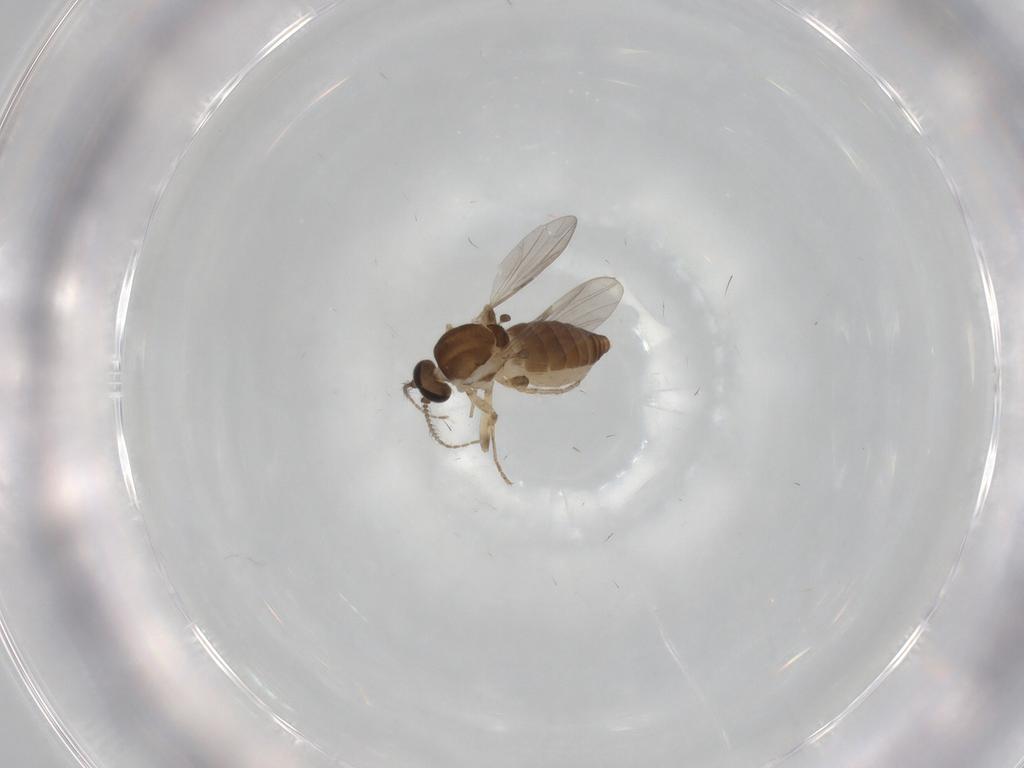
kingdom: Animalia
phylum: Arthropoda
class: Insecta
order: Diptera
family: Ceratopogonidae
